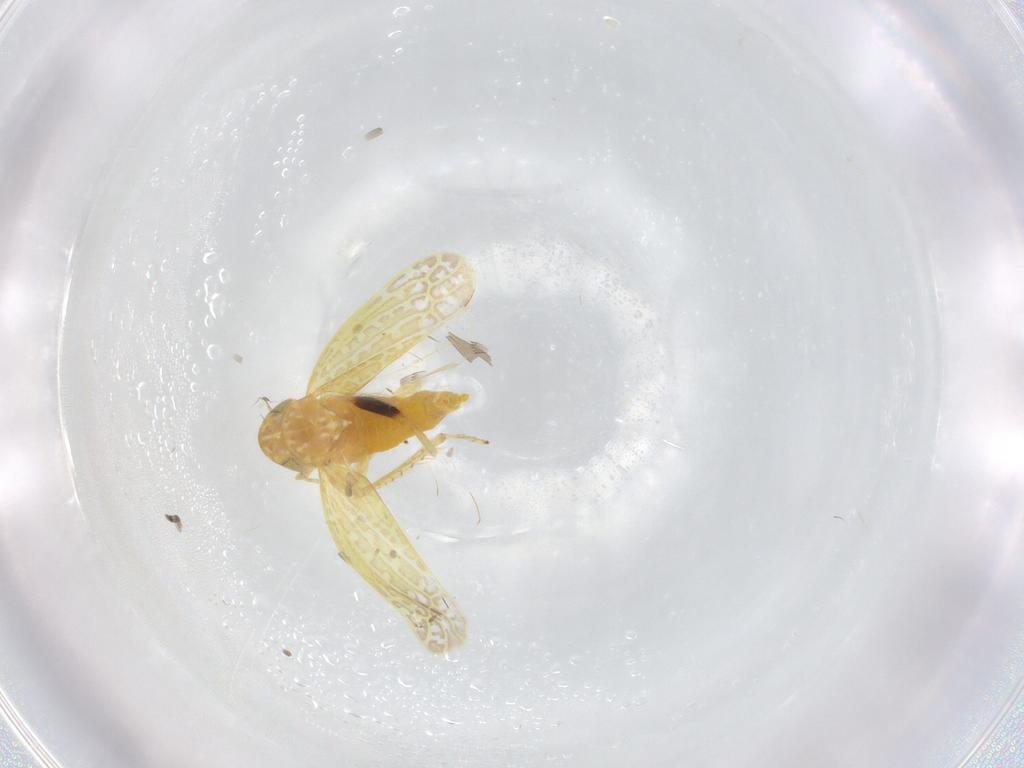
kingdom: Animalia
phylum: Arthropoda
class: Insecta
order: Hemiptera
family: Cicadellidae
